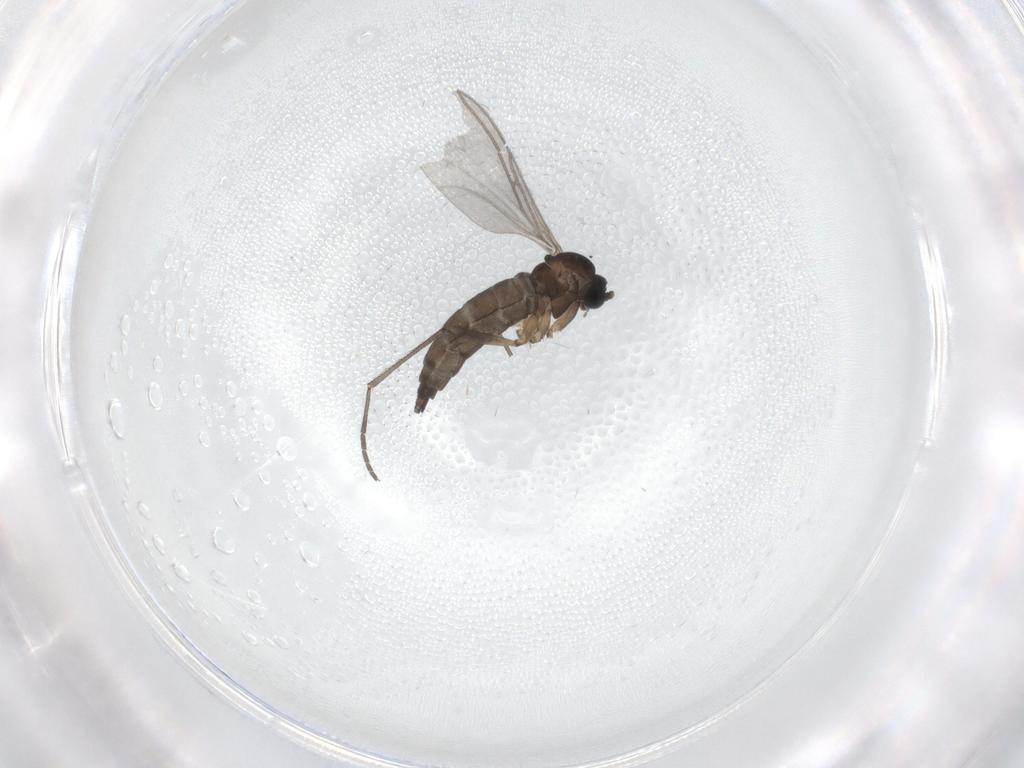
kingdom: Animalia
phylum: Arthropoda
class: Insecta
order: Diptera
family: Sciaridae
